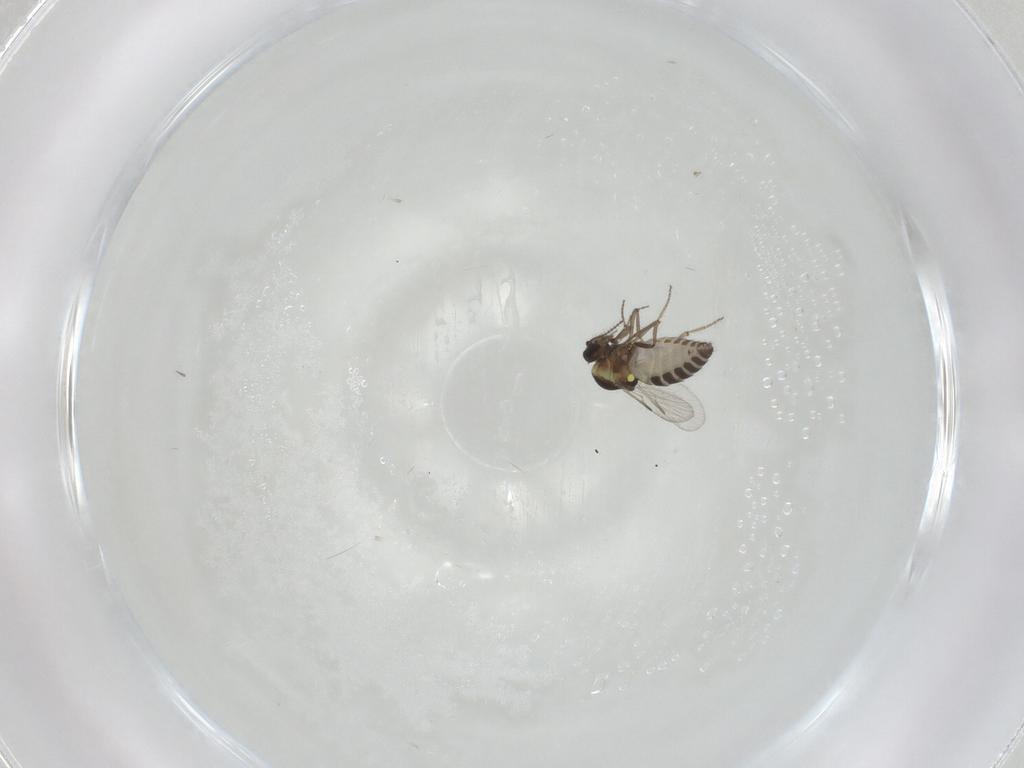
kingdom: Animalia
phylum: Arthropoda
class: Insecta
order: Diptera
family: Ceratopogonidae
